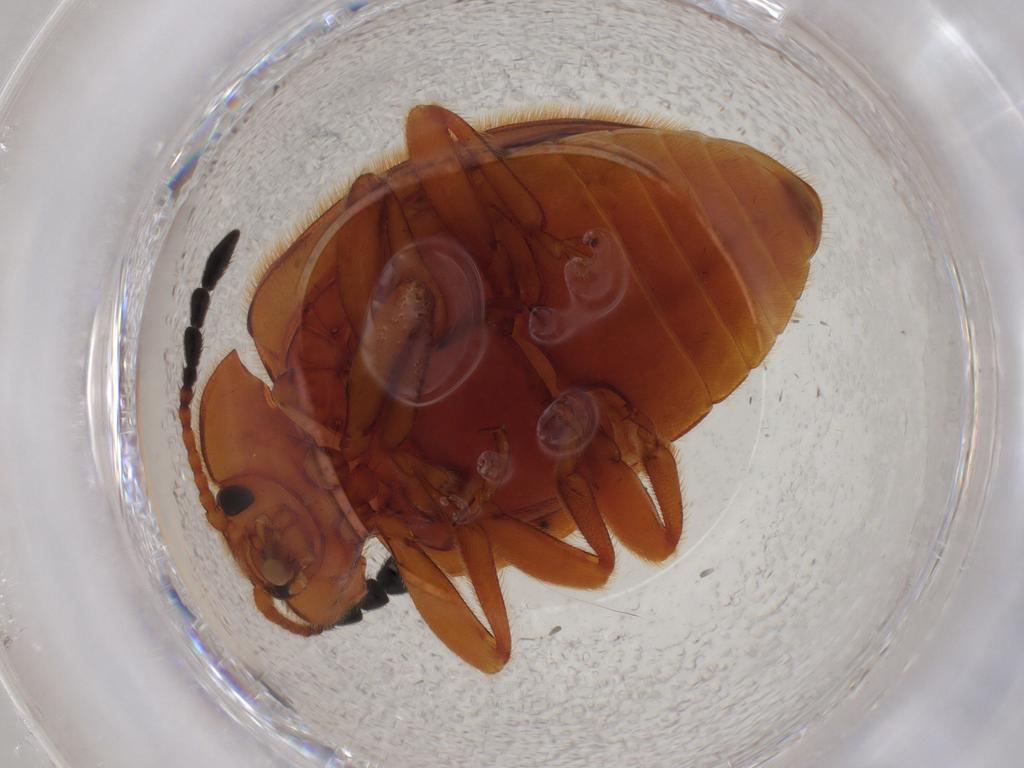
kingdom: Animalia
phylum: Arthropoda
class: Insecta
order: Coleoptera
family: Endomychidae
